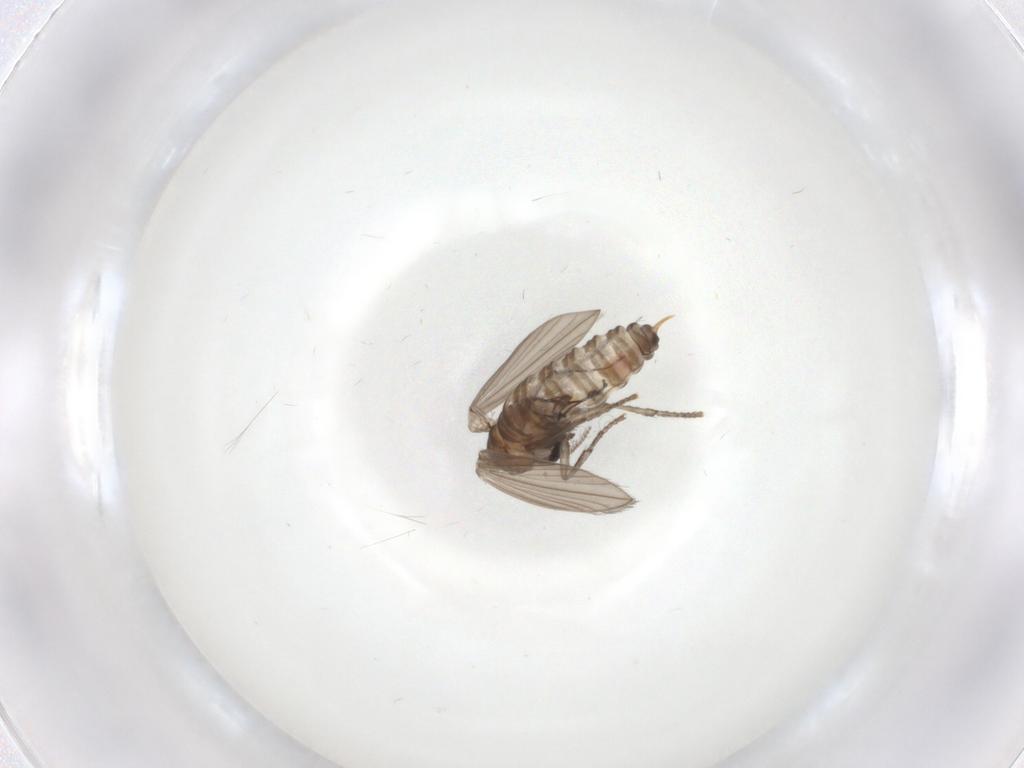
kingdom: Animalia
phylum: Arthropoda
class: Insecta
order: Diptera
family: Psychodidae
